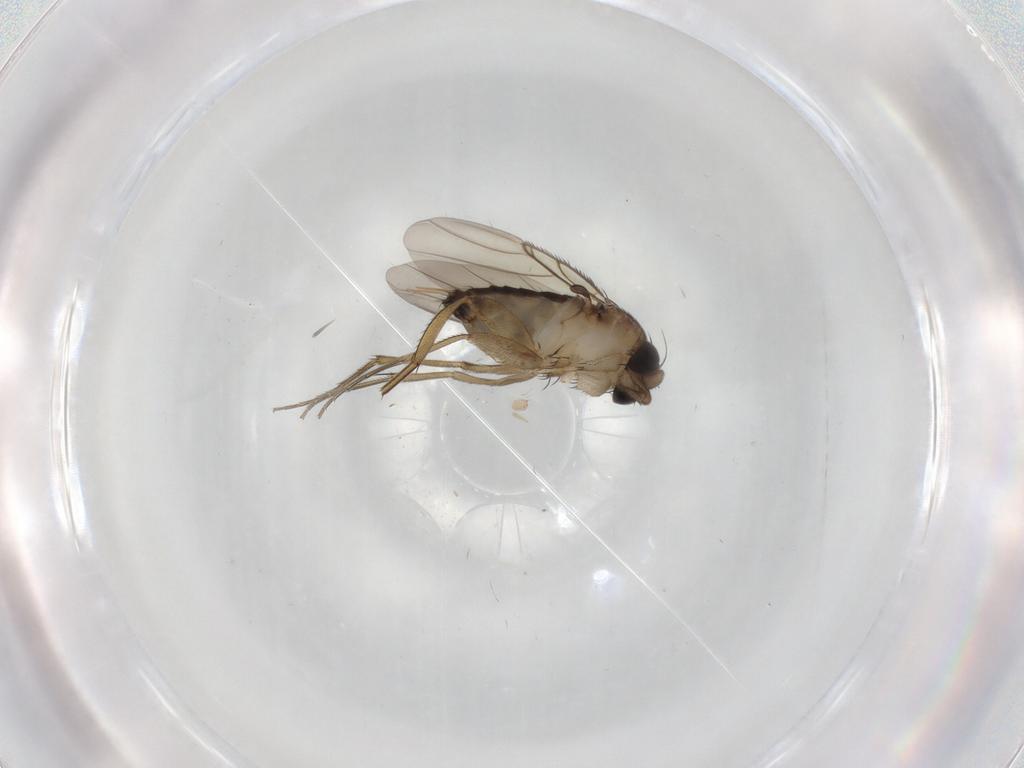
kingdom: Animalia
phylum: Arthropoda
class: Insecta
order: Diptera
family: Phoridae
